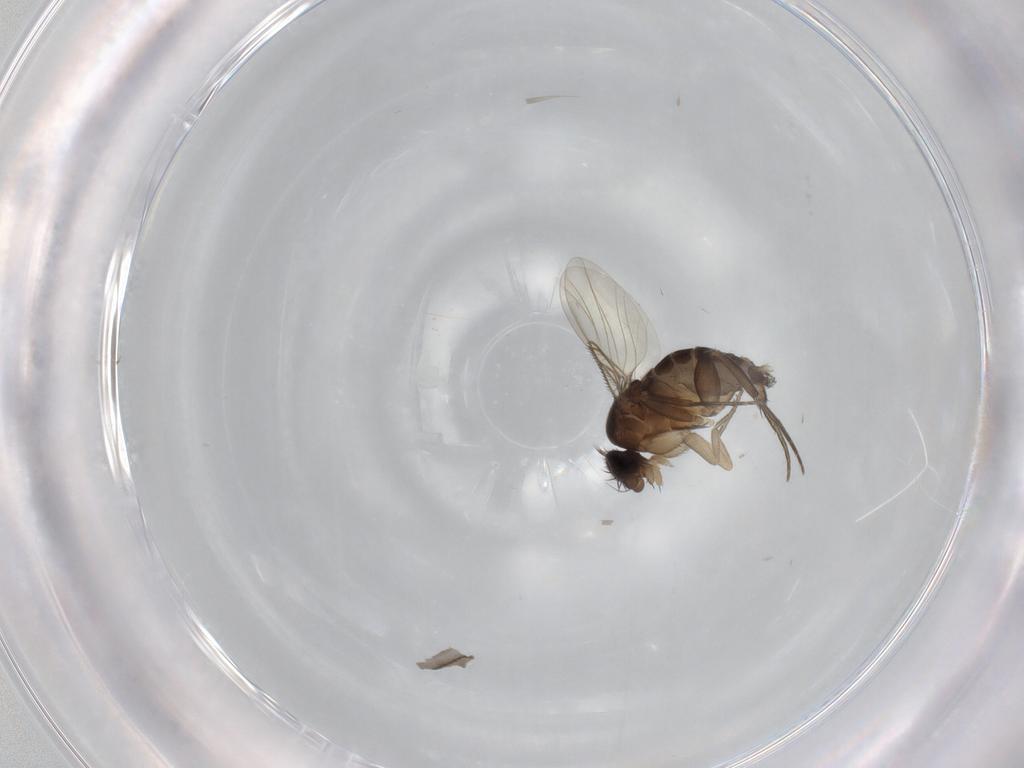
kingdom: Animalia
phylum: Arthropoda
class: Insecta
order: Diptera
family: Phoridae
